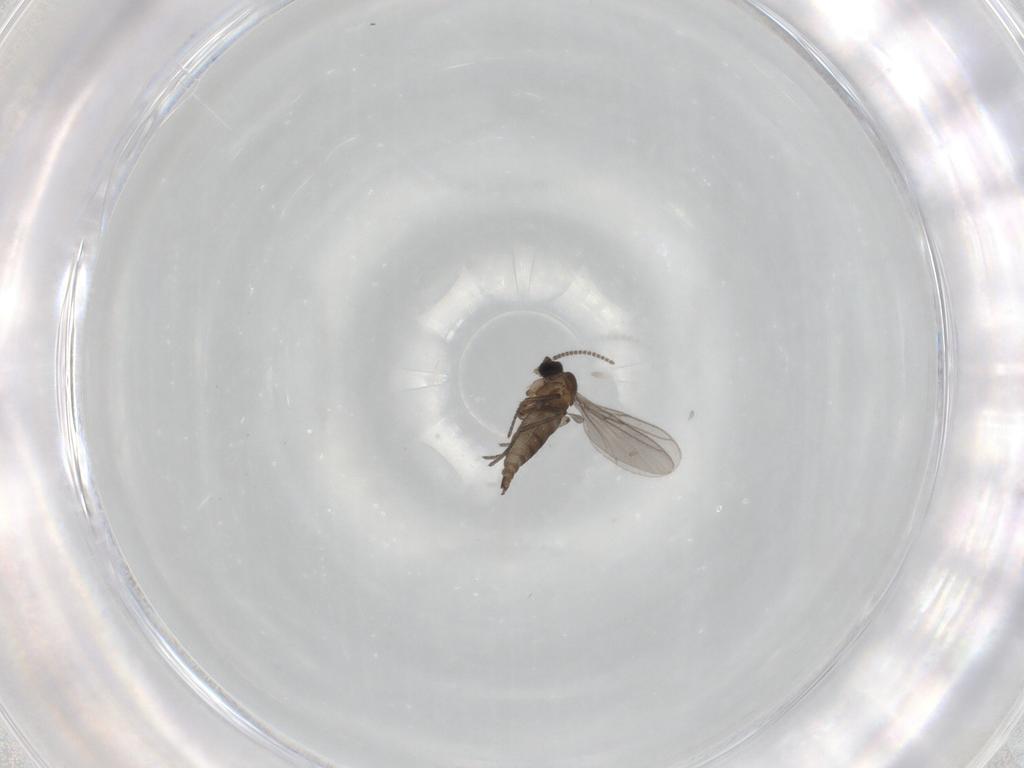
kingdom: Animalia
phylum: Arthropoda
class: Insecta
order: Diptera
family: Cecidomyiidae
